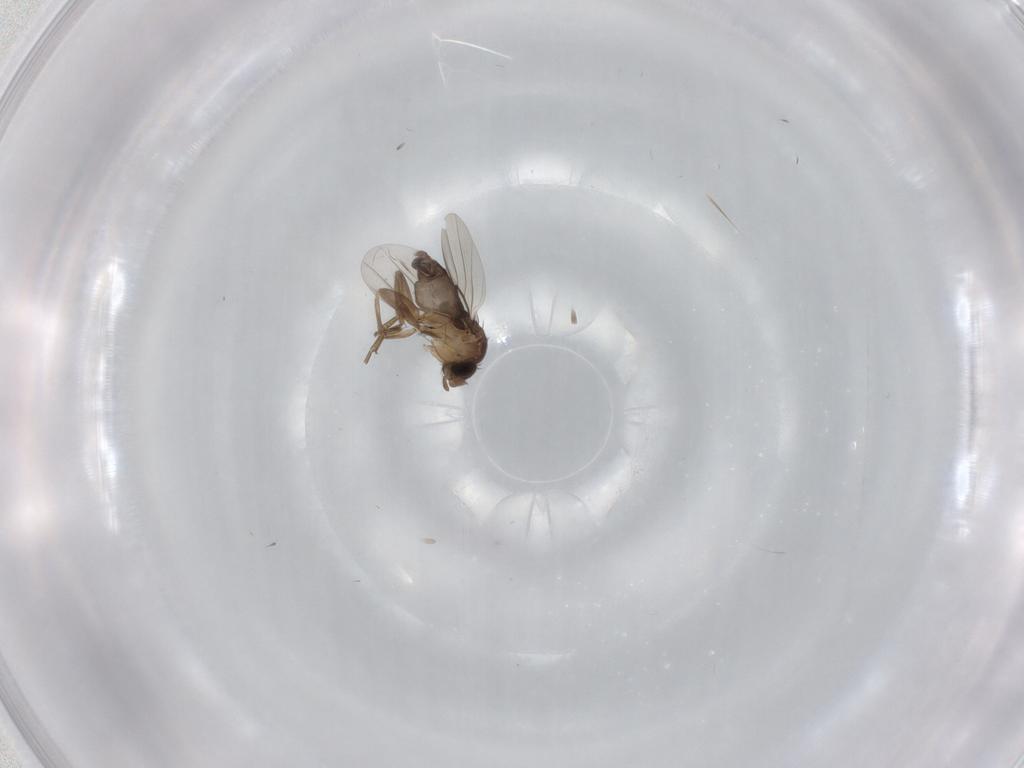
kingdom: Animalia
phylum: Arthropoda
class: Insecta
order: Diptera
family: Phoridae
